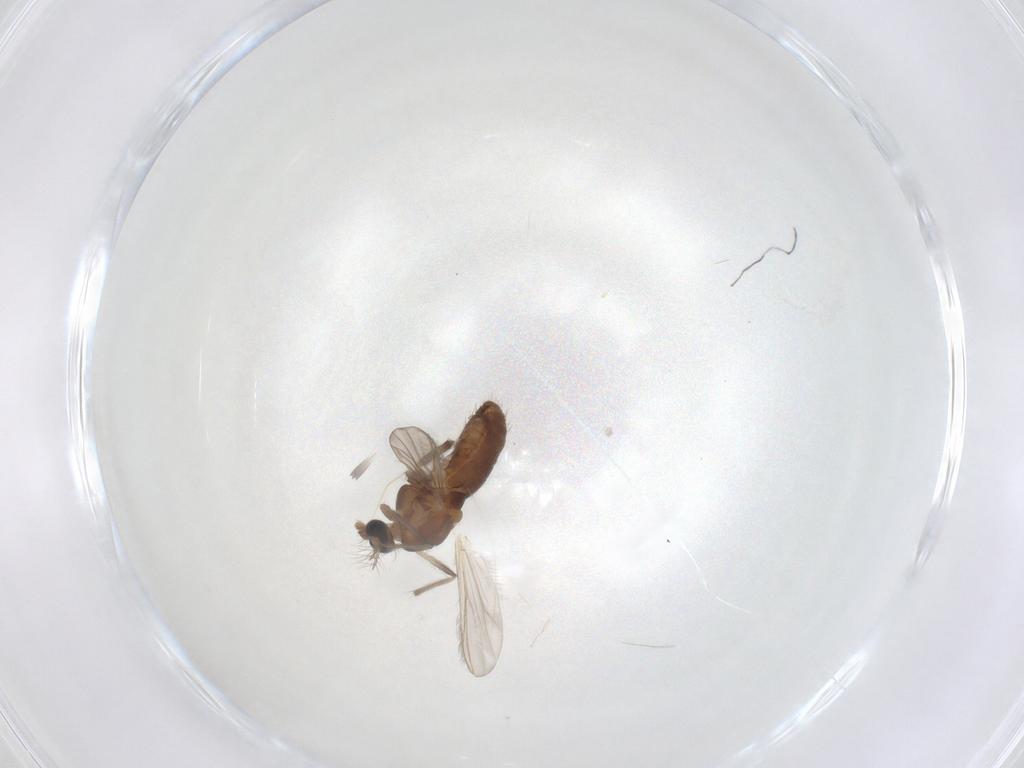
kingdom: Animalia
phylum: Arthropoda
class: Insecta
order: Diptera
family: Chironomidae
